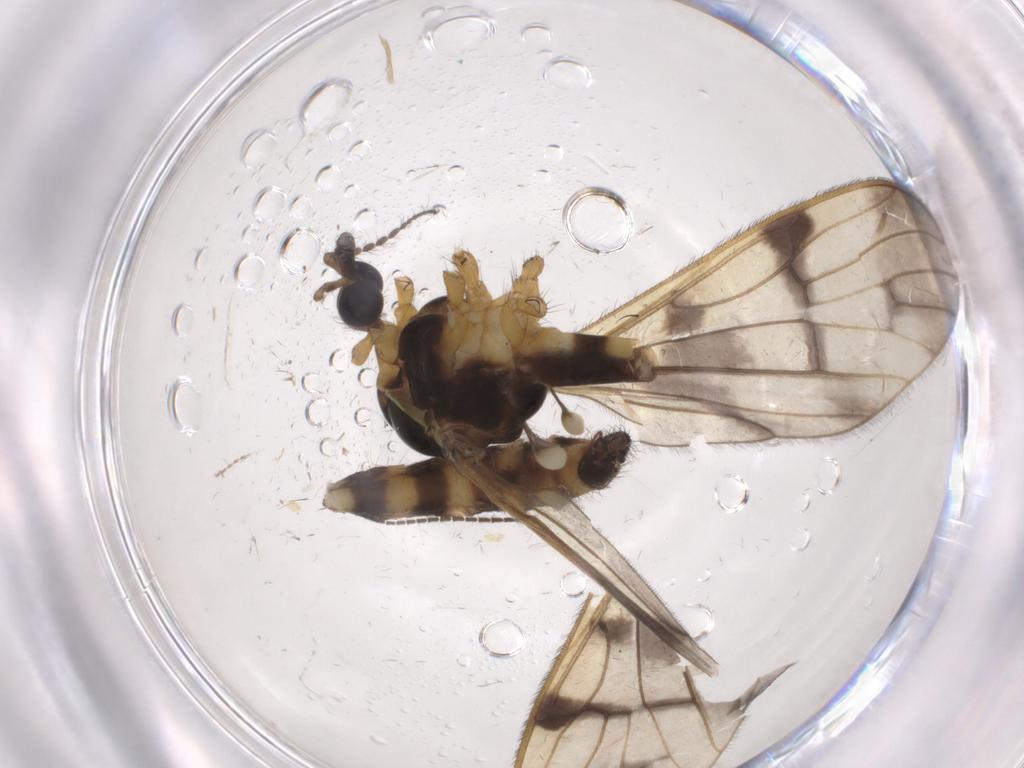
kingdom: Animalia
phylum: Arthropoda
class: Insecta
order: Diptera
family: Limoniidae
